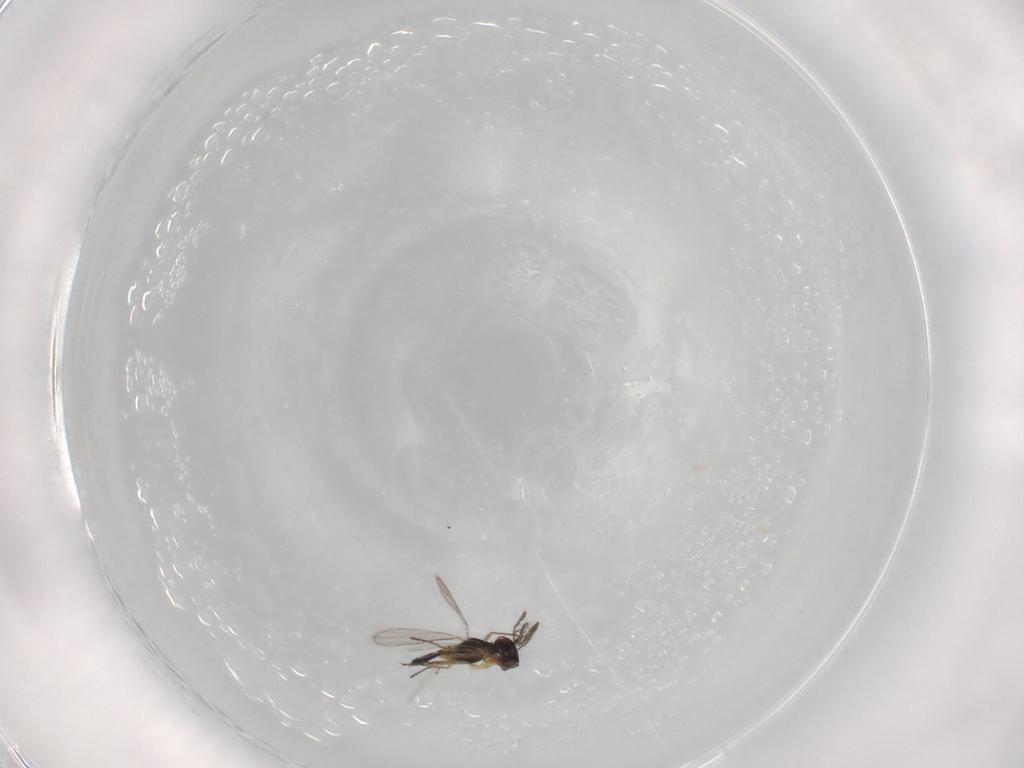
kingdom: Animalia
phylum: Arthropoda
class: Insecta
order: Hymenoptera
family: Eulophidae
